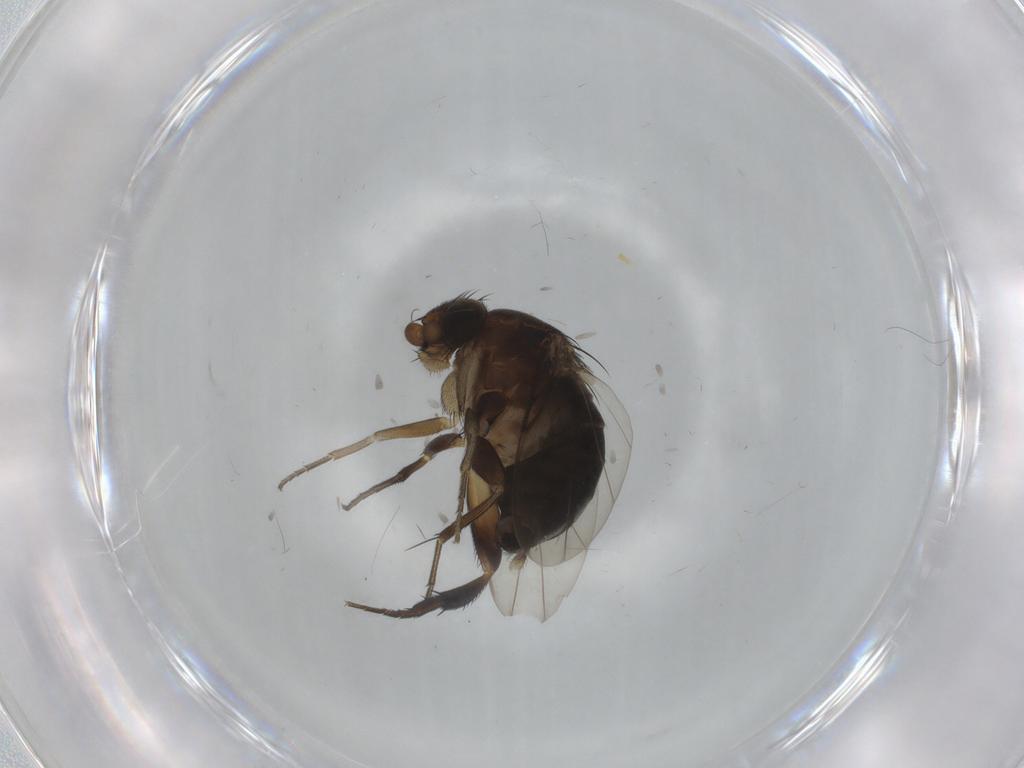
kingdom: Animalia
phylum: Arthropoda
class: Insecta
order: Diptera
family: Phoridae
